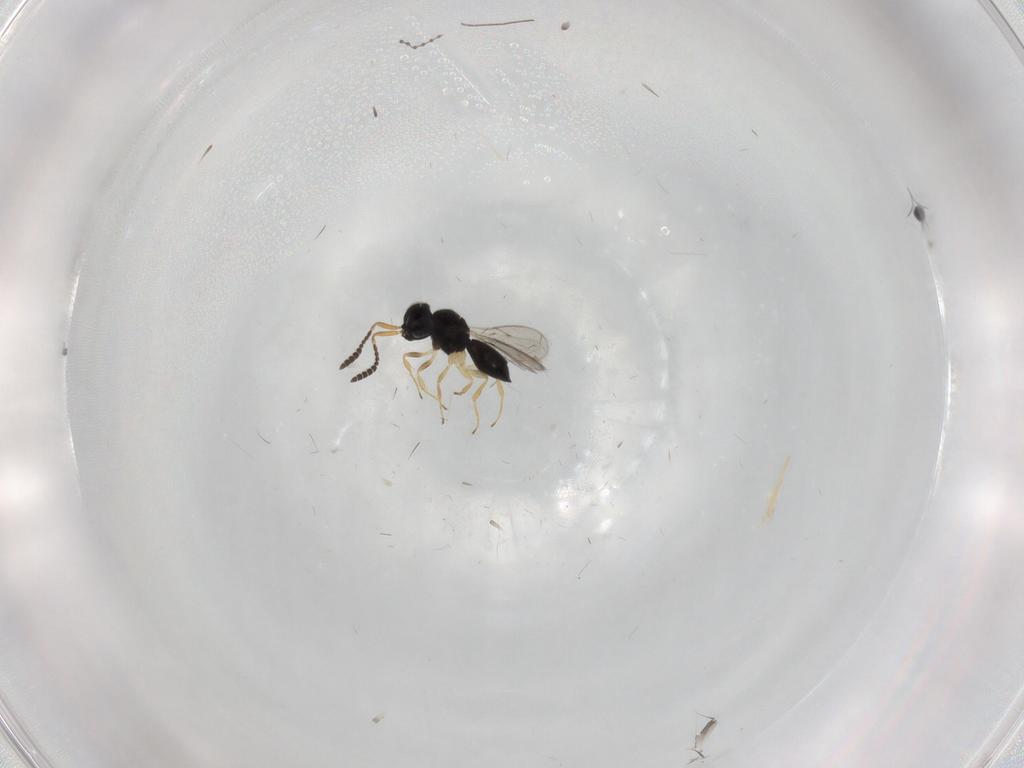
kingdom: Animalia
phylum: Arthropoda
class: Insecta
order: Hymenoptera
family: Scelionidae
